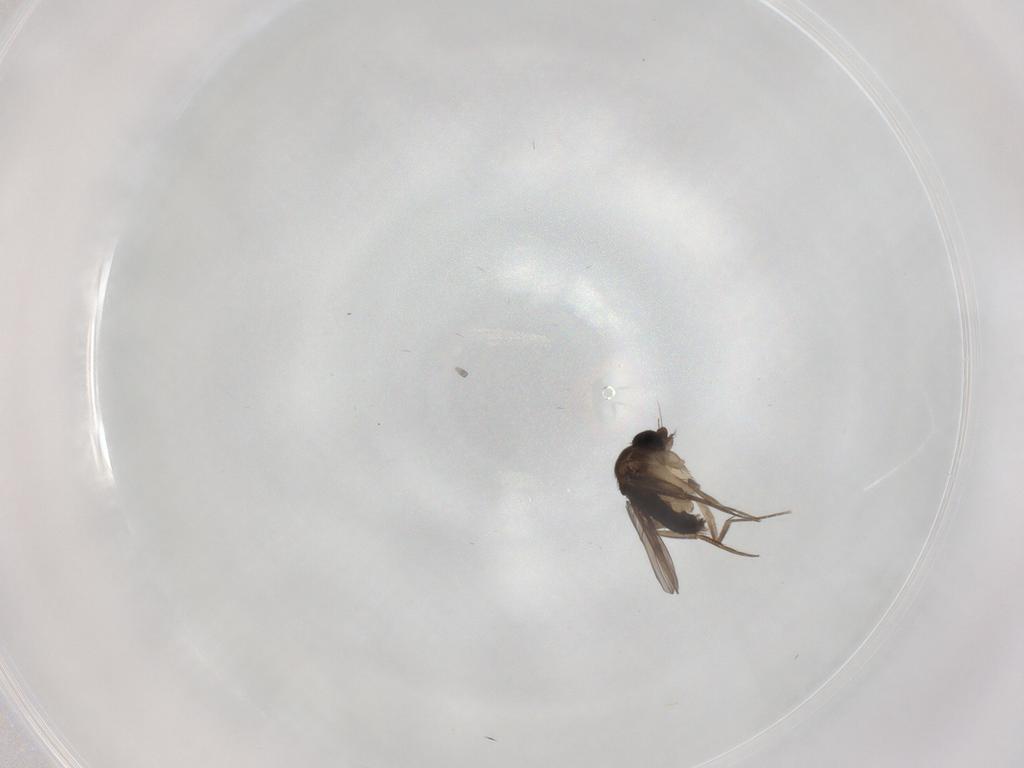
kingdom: Animalia
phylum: Arthropoda
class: Insecta
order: Diptera
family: Phoridae
